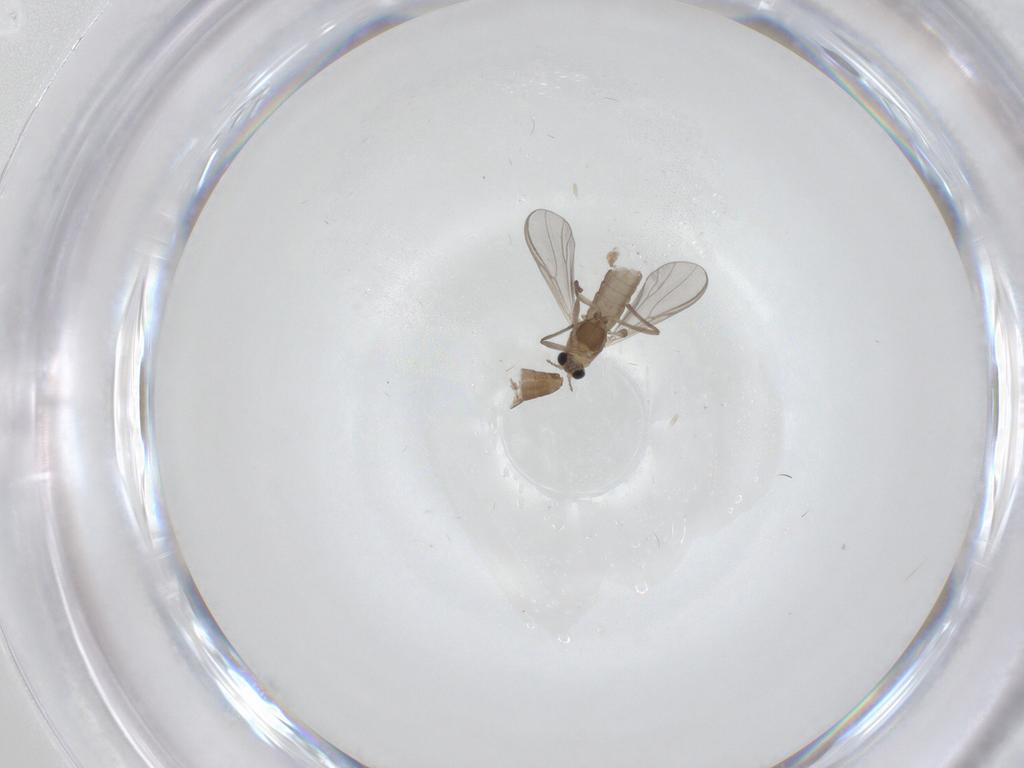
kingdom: Animalia
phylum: Arthropoda
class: Insecta
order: Diptera
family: Chironomidae
